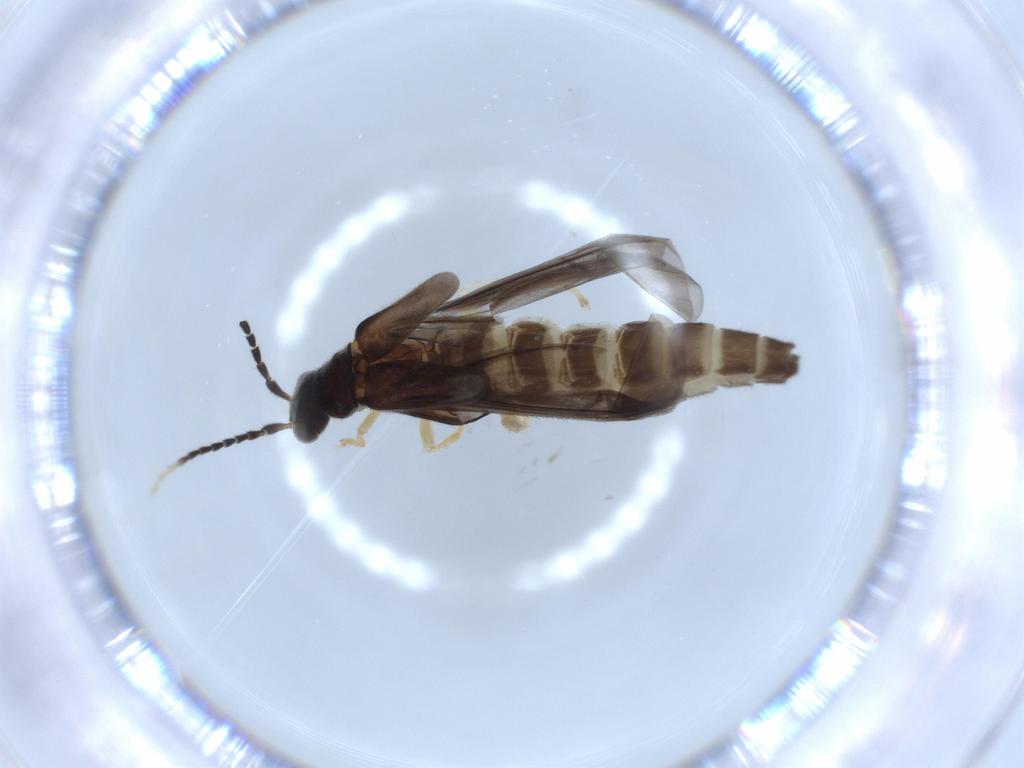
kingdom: Animalia
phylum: Arthropoda
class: Insecta
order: Coleoptera
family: Cantharidae
